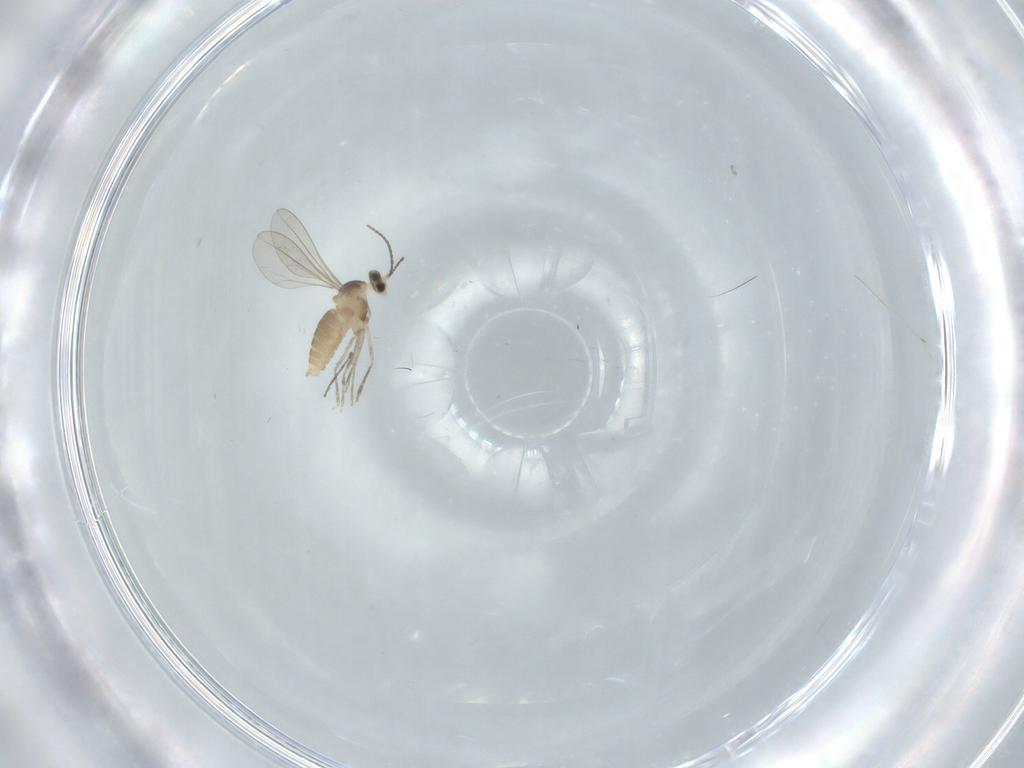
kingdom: Animalia
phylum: Arthropoda
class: Insecta
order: Diptera
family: Cecidomyiidae
